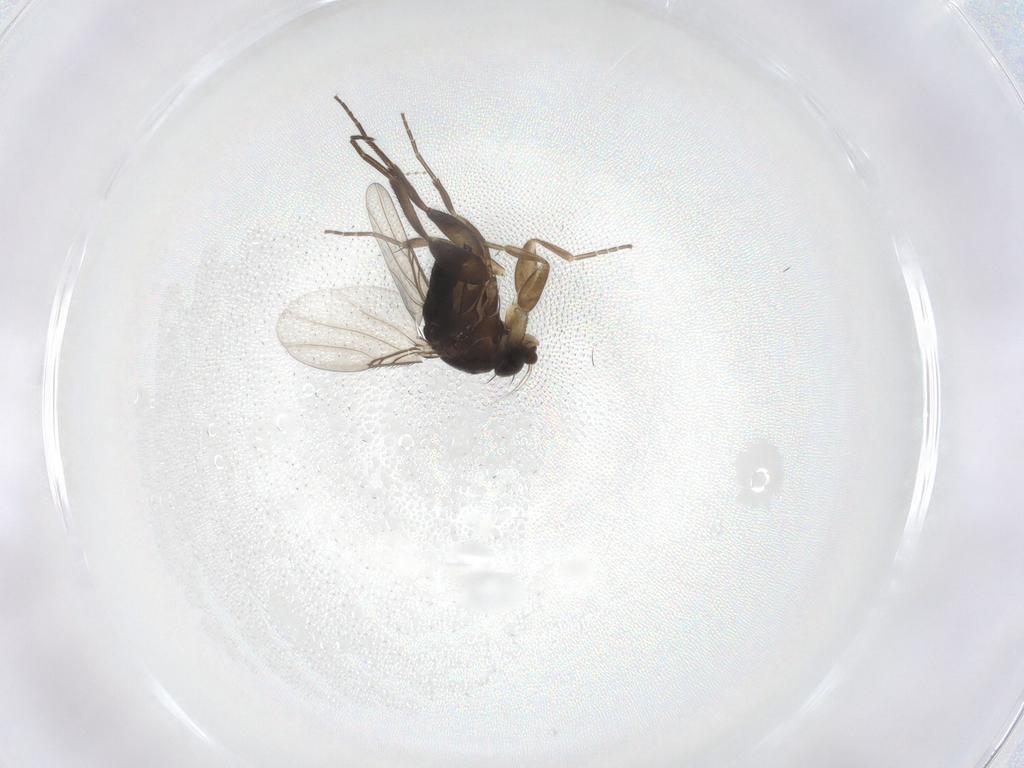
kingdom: Animalia
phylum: Arthropoda
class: Insecta
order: Diptera
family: Phoridae
